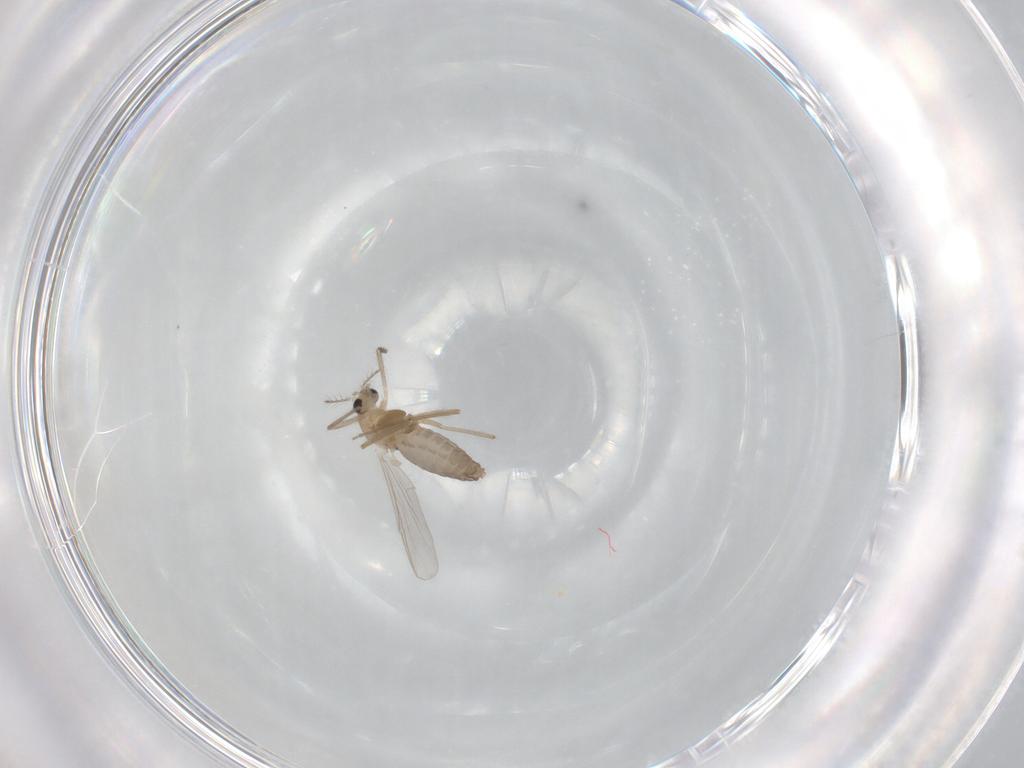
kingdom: Animalia
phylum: Arthropoda
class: Insecta
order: Diptera
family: Chironomidae
